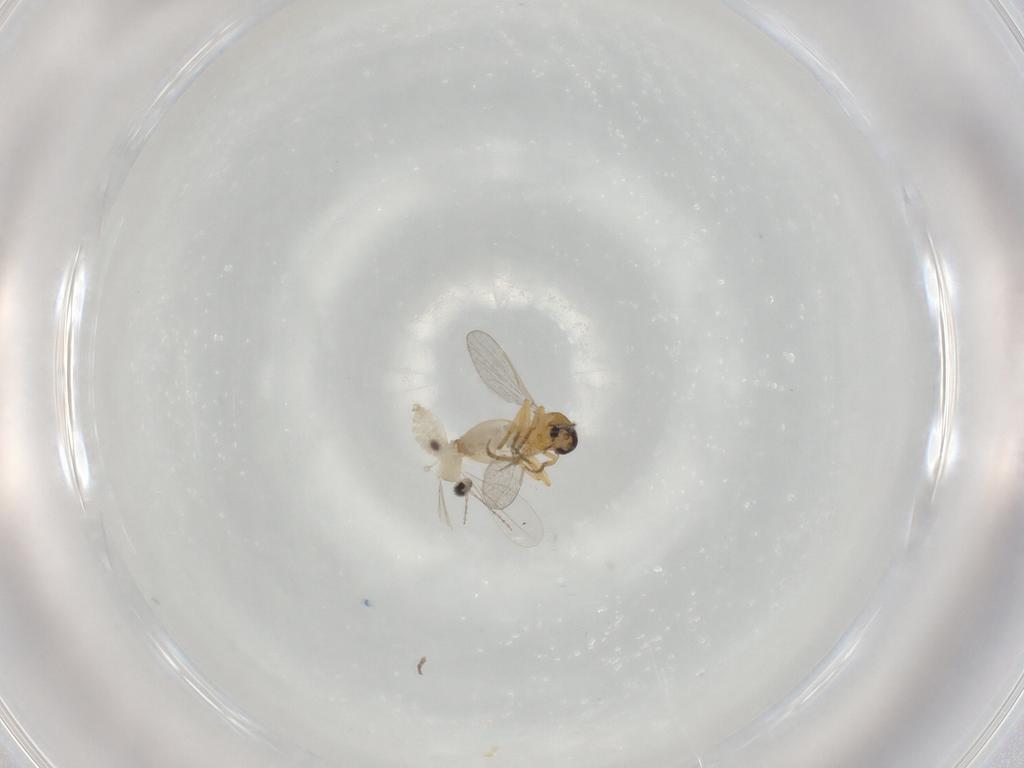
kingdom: Animalia
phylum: Arthropoda
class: Insecta
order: Diptera
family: Cecidomyiidae
